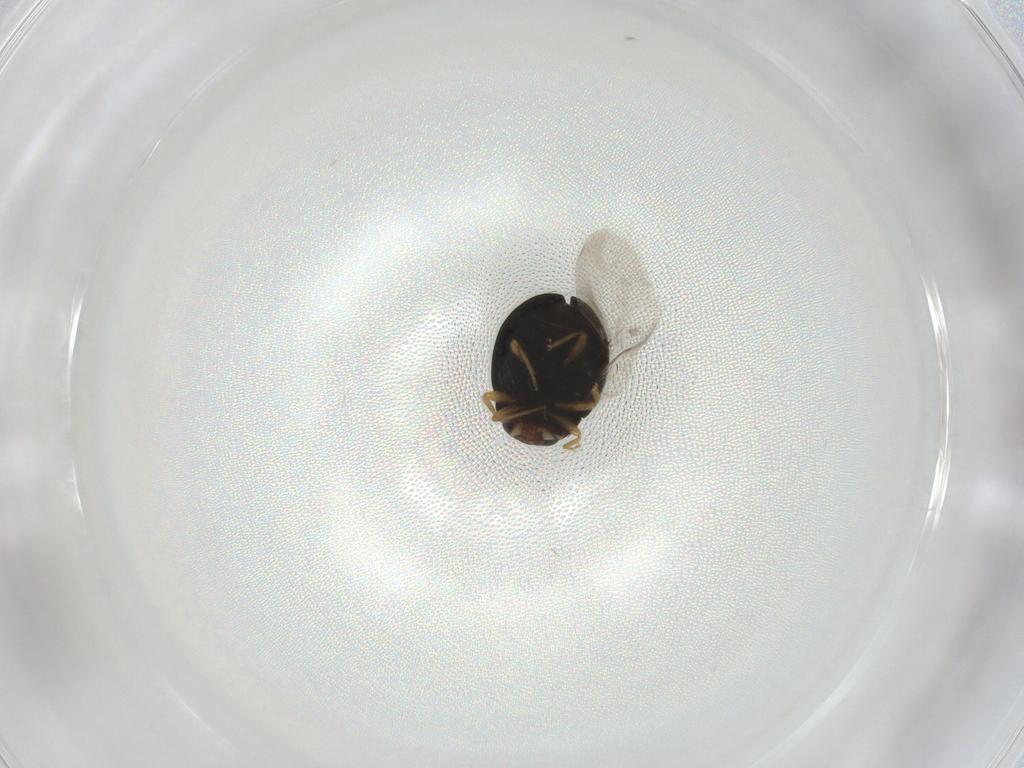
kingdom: Animalia
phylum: Arthropoda
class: Insecta
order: Coleoptera
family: Coccinellidae
